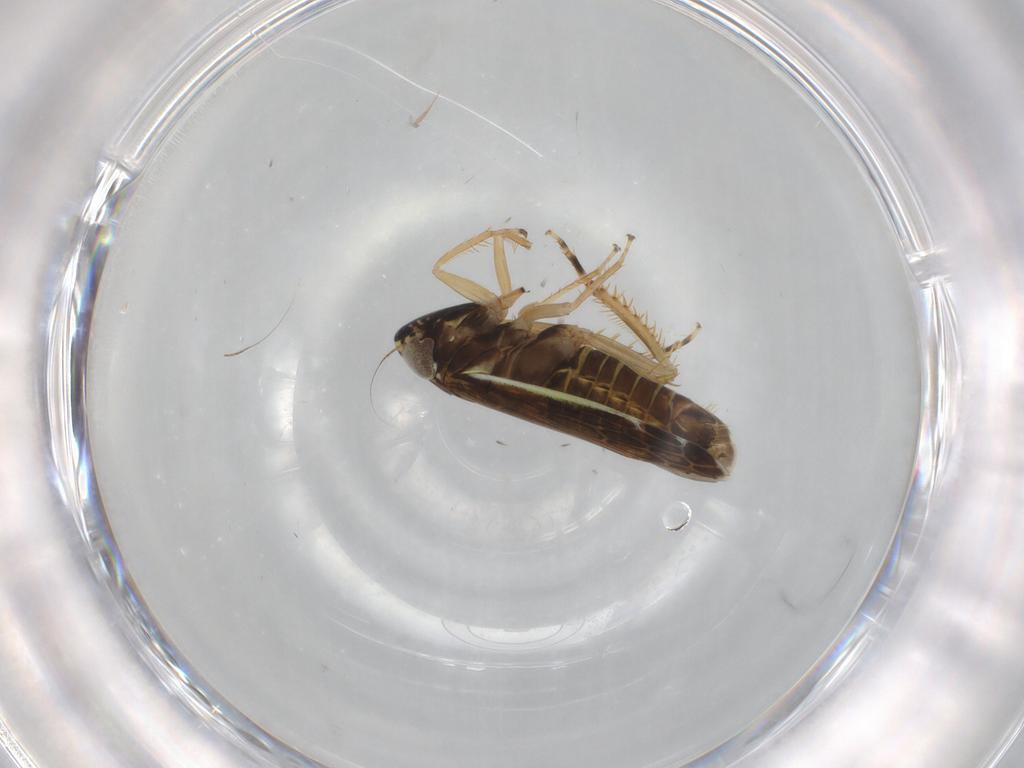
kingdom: Animalia
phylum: Arthropoda
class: Insecta
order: Hemiptera
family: Cicadellidae
